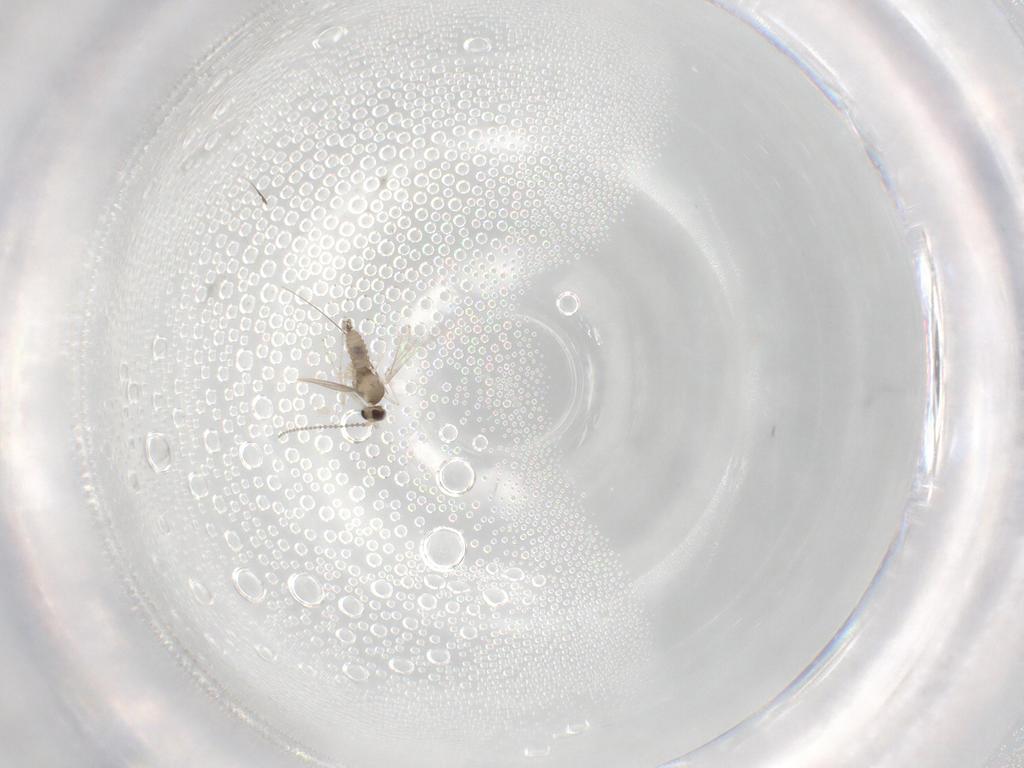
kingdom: Animalia
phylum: Arthropoda
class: Insecta
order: Diptera
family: Cecidomyiidae
